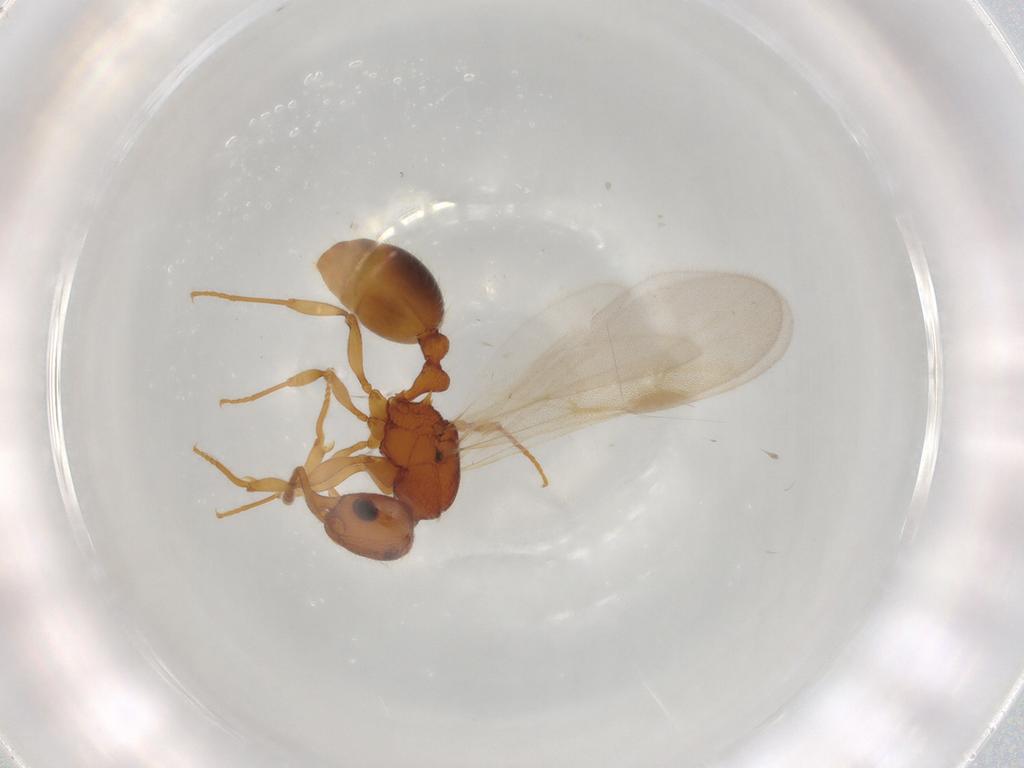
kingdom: Animalia
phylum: Arthropoda
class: Insecta
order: Hymenoptera
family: Formicidae
